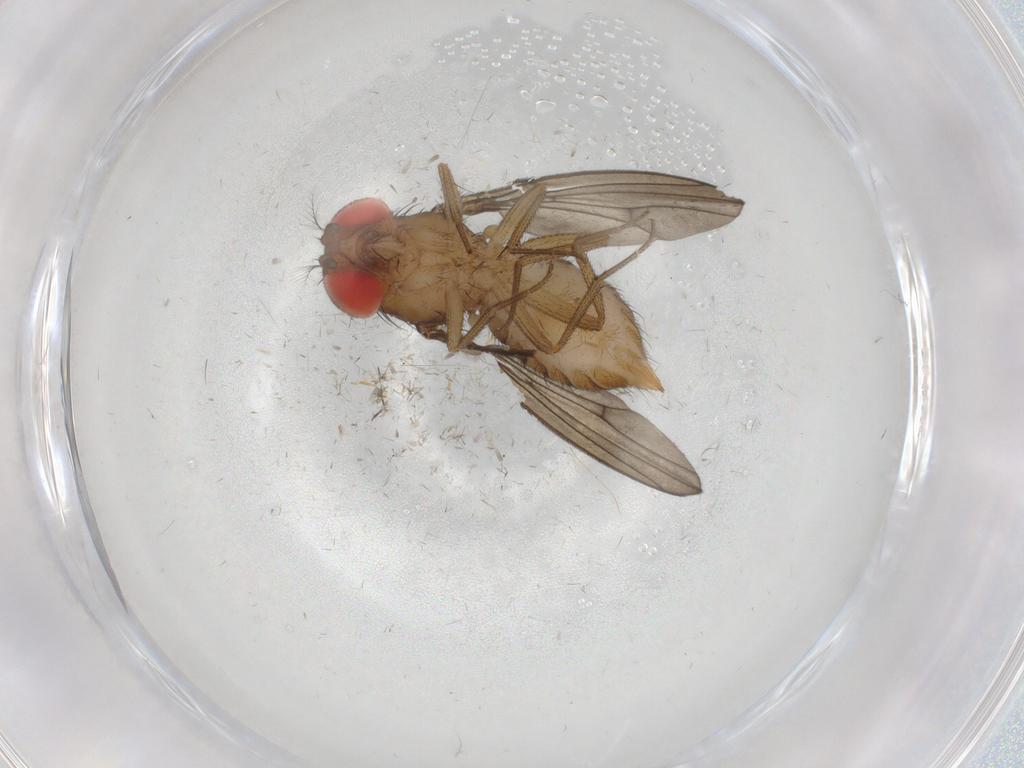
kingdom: Animalia
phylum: Arthropoda
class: Insecta
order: Diptera
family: Drosophilidae
